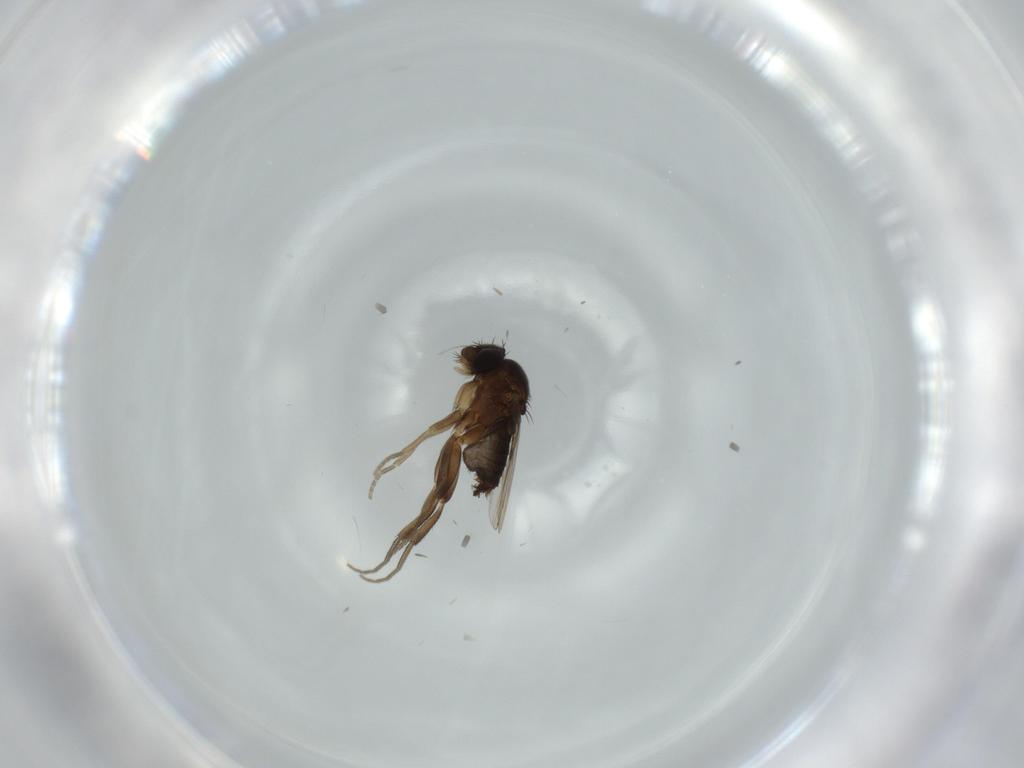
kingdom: Animalia
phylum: Arthropoda
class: Insecta
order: Diptera
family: Phoridae
